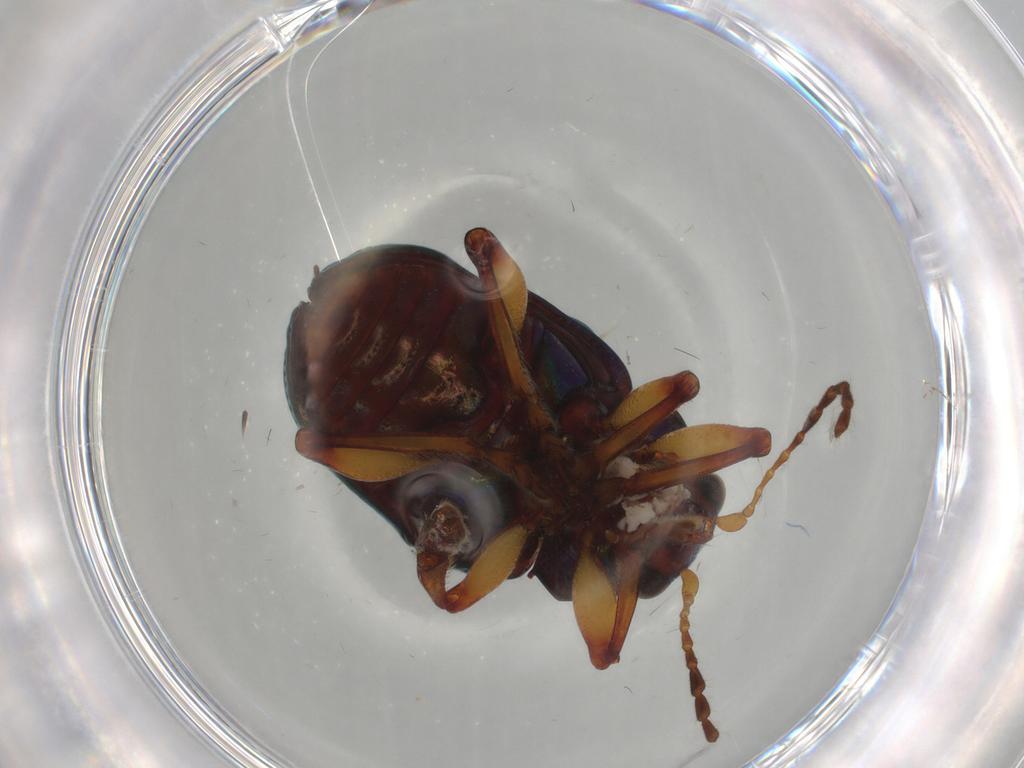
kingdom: Animalia
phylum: Arthropoda
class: Insecta
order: Coleoptera
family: Chrysomelidae
